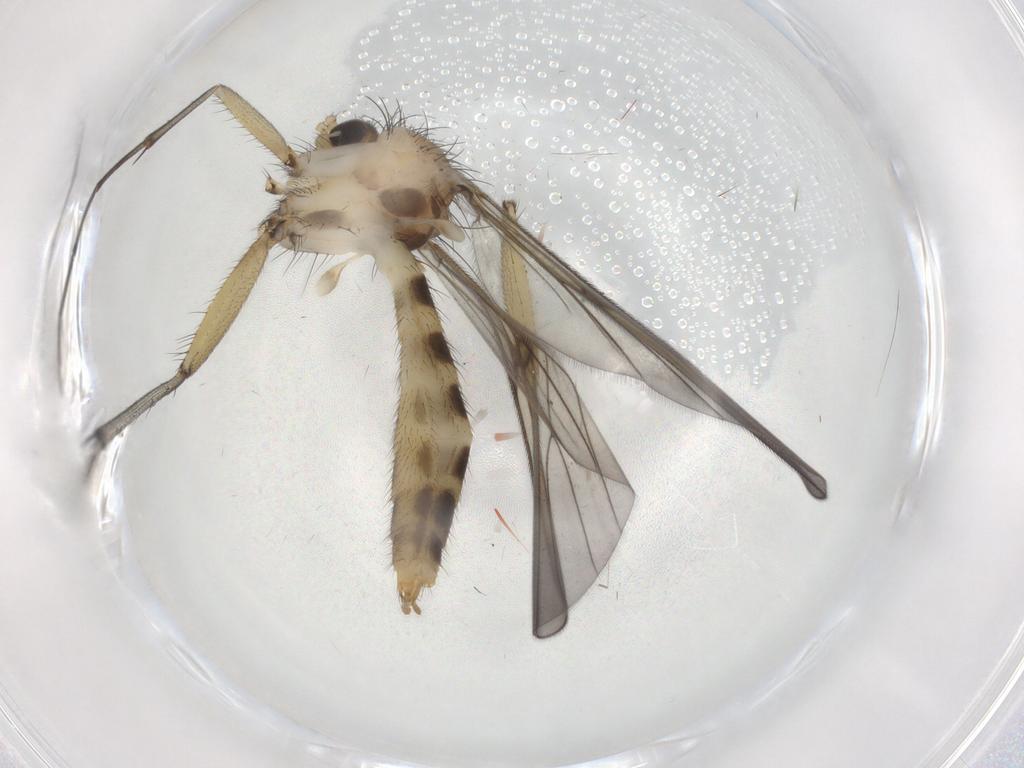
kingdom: Animalia
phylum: Arthropoda
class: Insecta
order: Diptera
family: Mycetophilidae
